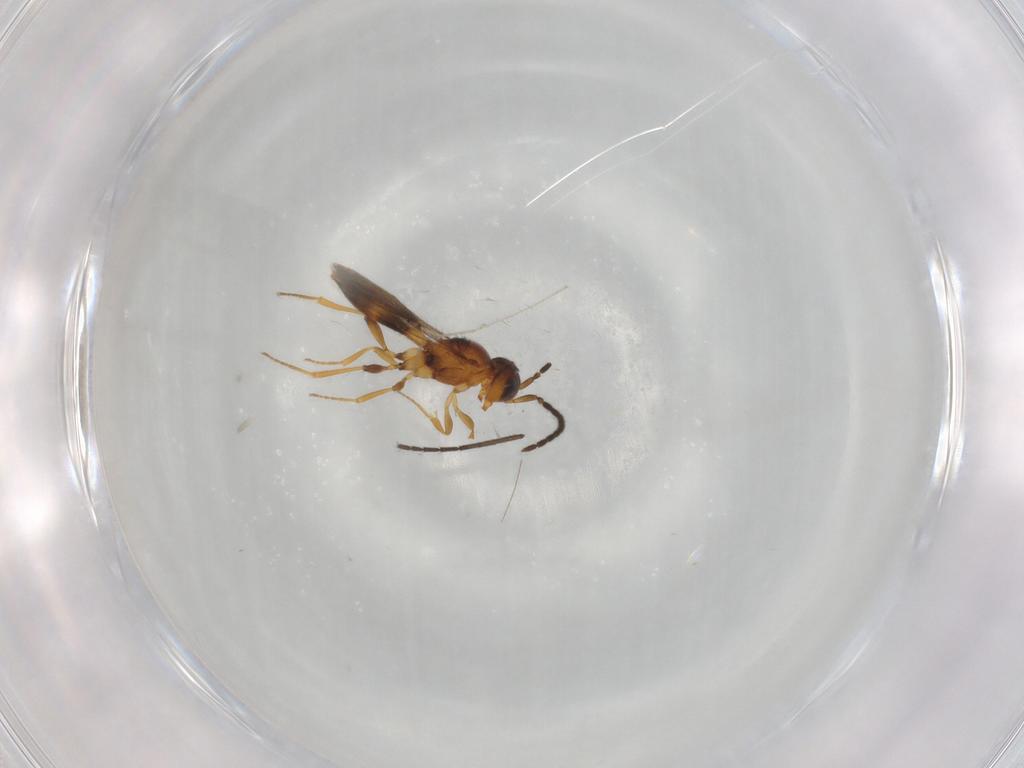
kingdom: Animalia
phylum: Arthropoda
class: Insecta
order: Hymenoptera
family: Scelionidae
